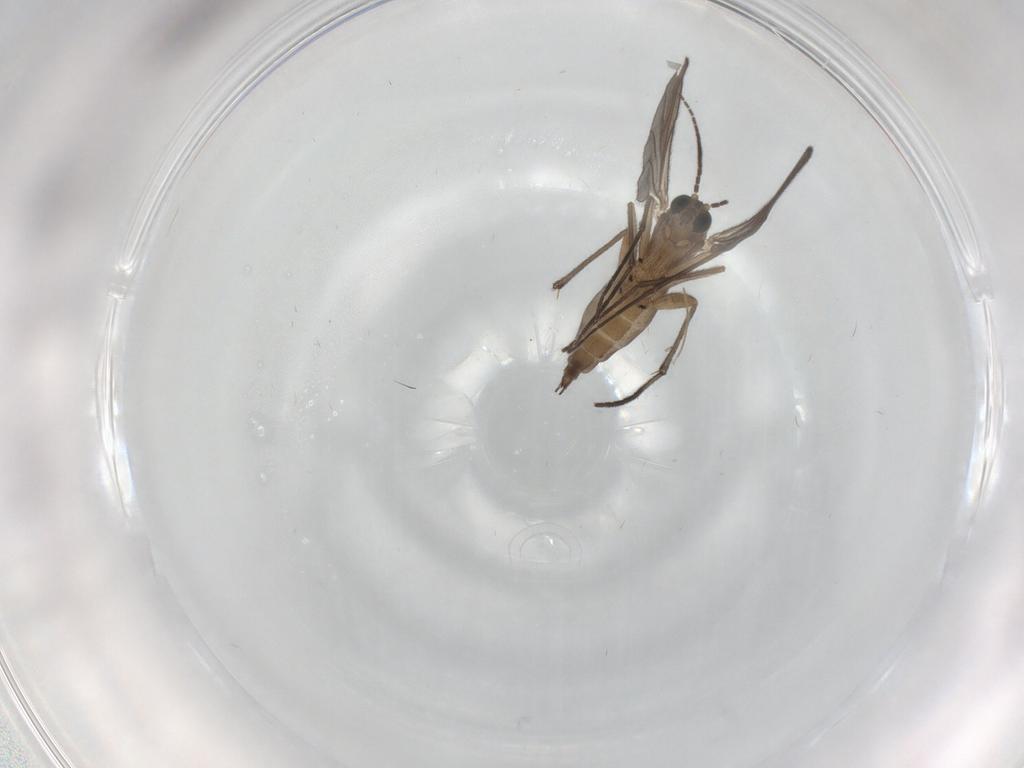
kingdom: Animalia
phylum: Arthropoda
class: Insecta
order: Diptera
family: Sciaridae
